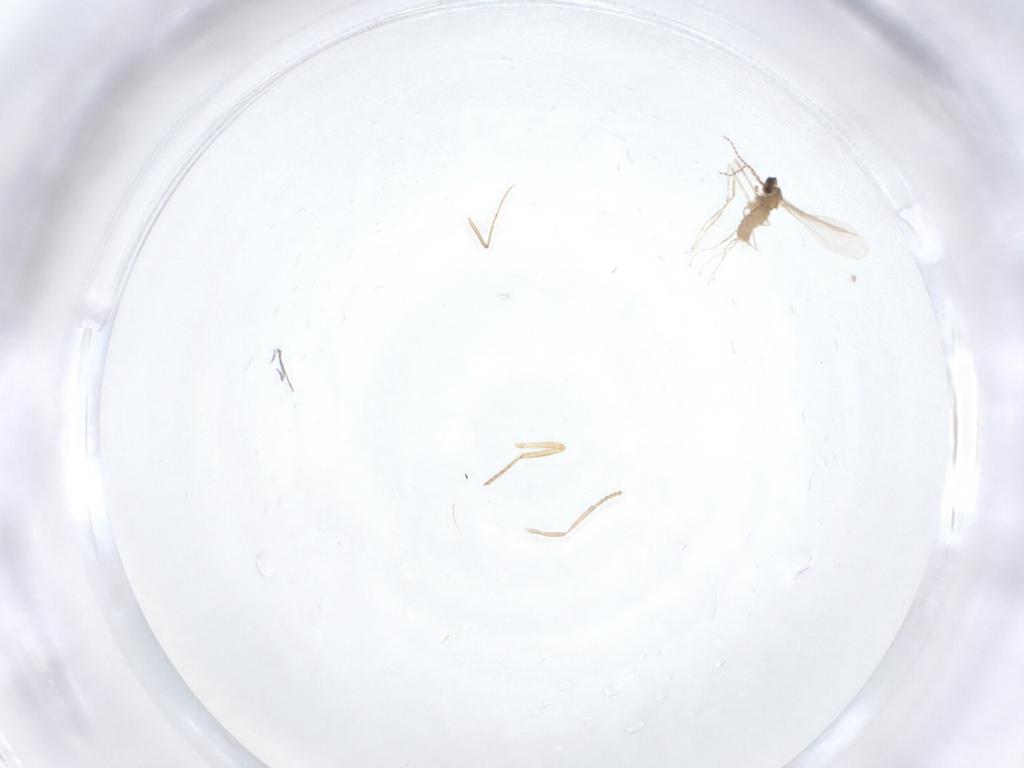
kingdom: Animalia
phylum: Arthropoda
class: Insecta
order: Diptera
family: Cecidomyiidae
